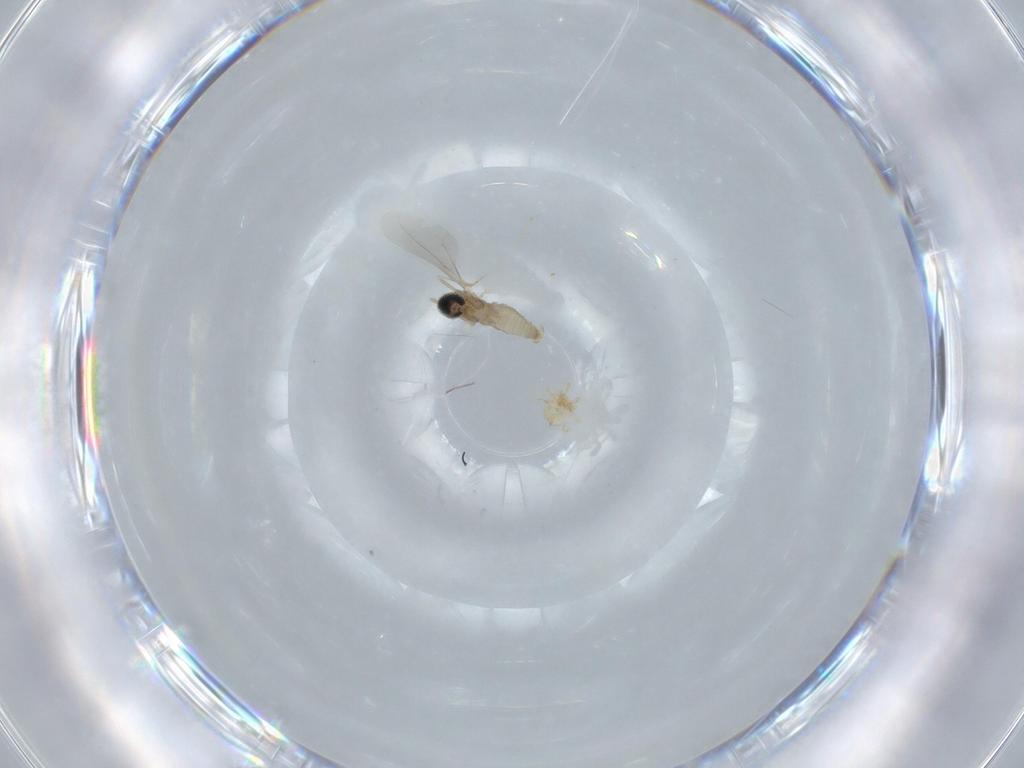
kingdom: Animalia
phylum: Arthropoda
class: Insecta
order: Diptera
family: Cecidomyiidae
